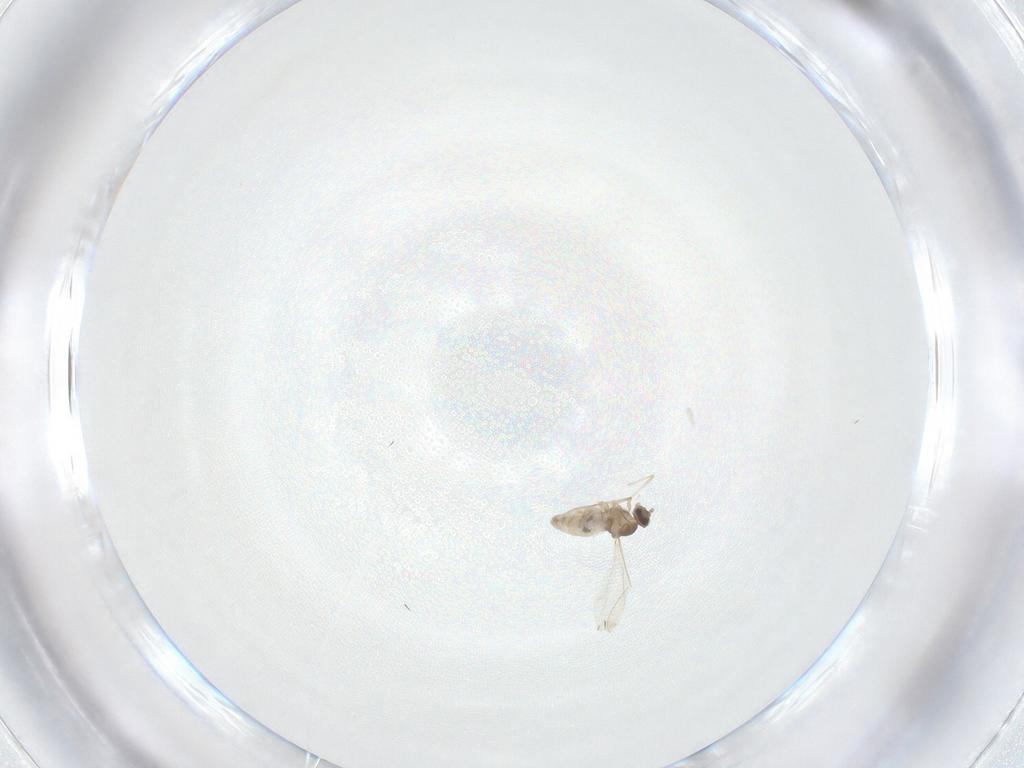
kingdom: Animalia
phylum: Arthropoda
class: Insecta
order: Diptera
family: Cecidomyiidae
